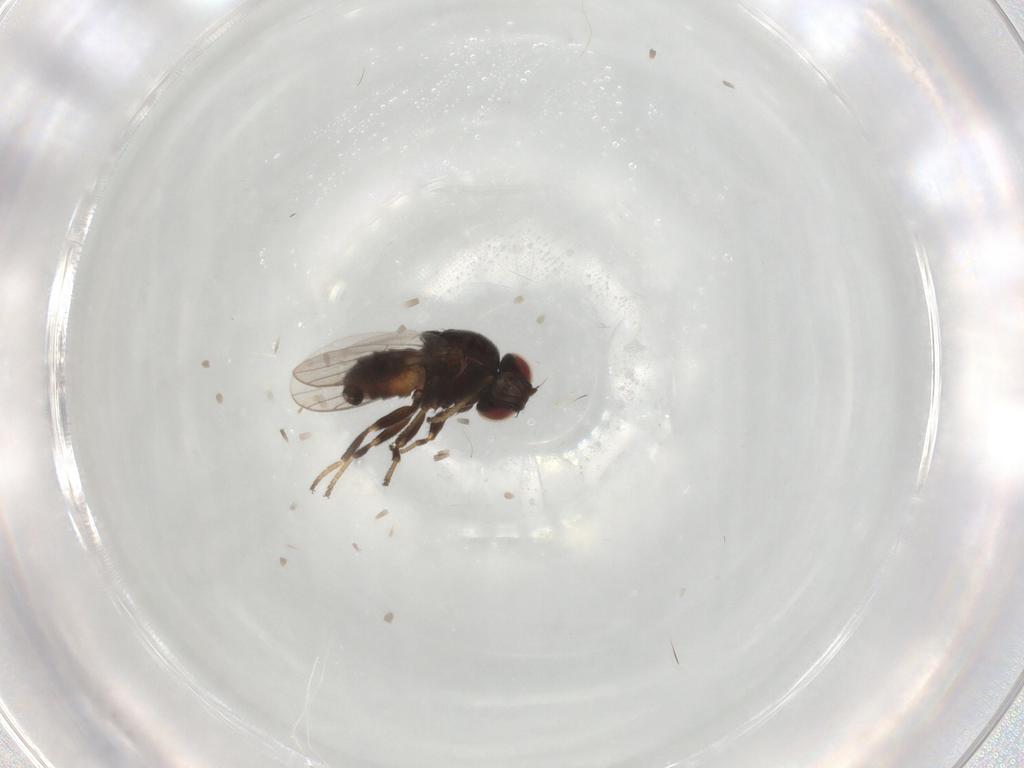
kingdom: Animalia
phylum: Arthropoda
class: Insecta
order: Diptera
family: Chloropidae
